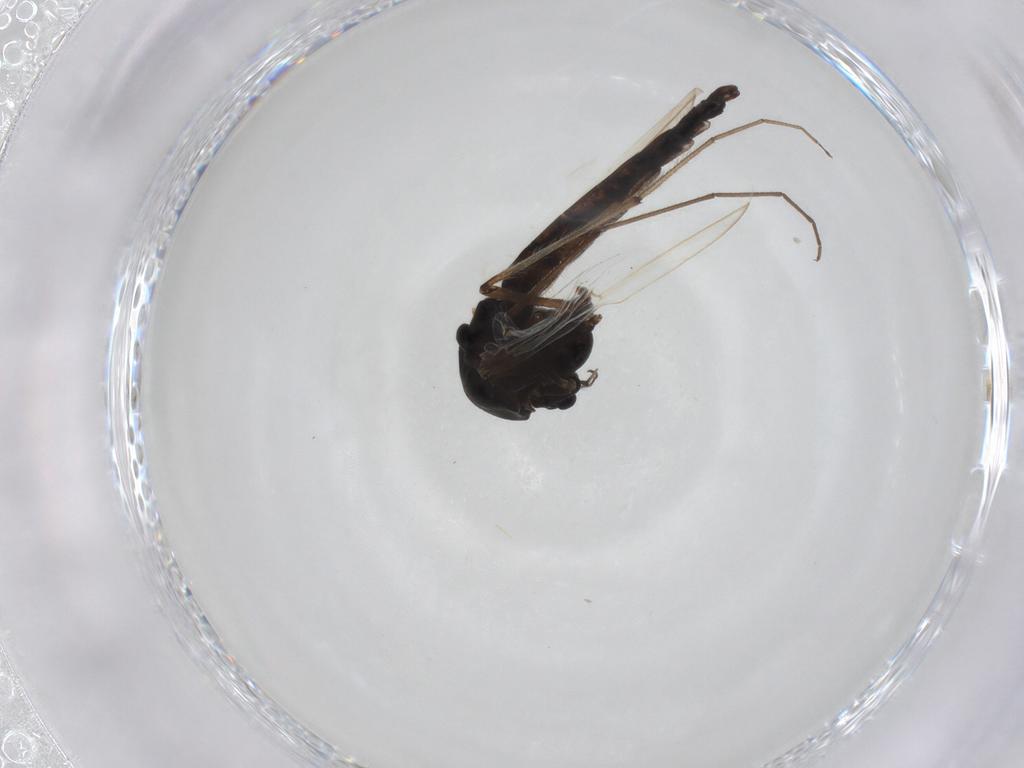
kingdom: Animalia
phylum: Arthropoda
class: Insecta
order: Diptera
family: Chironomidae
